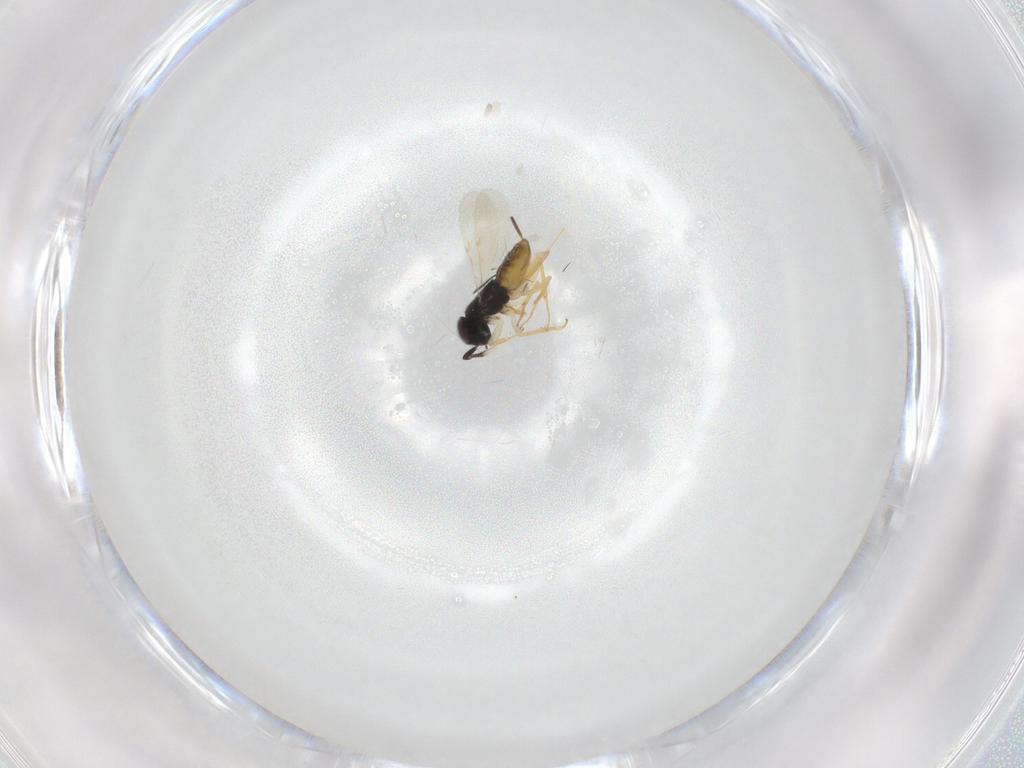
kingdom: Animalia
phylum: Arthropoda
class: Insecta
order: Hymenoptera
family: Encyrtidae
